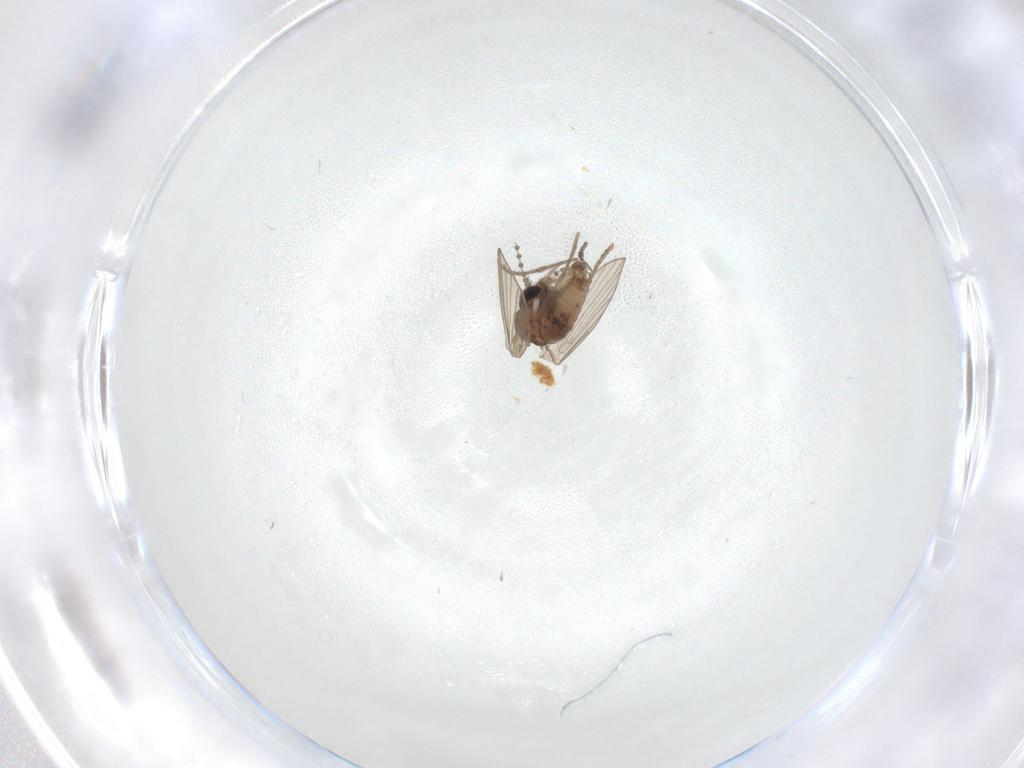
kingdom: Animalia
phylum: Arthropoda
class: Insecta
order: Diptera
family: Psychodidae
